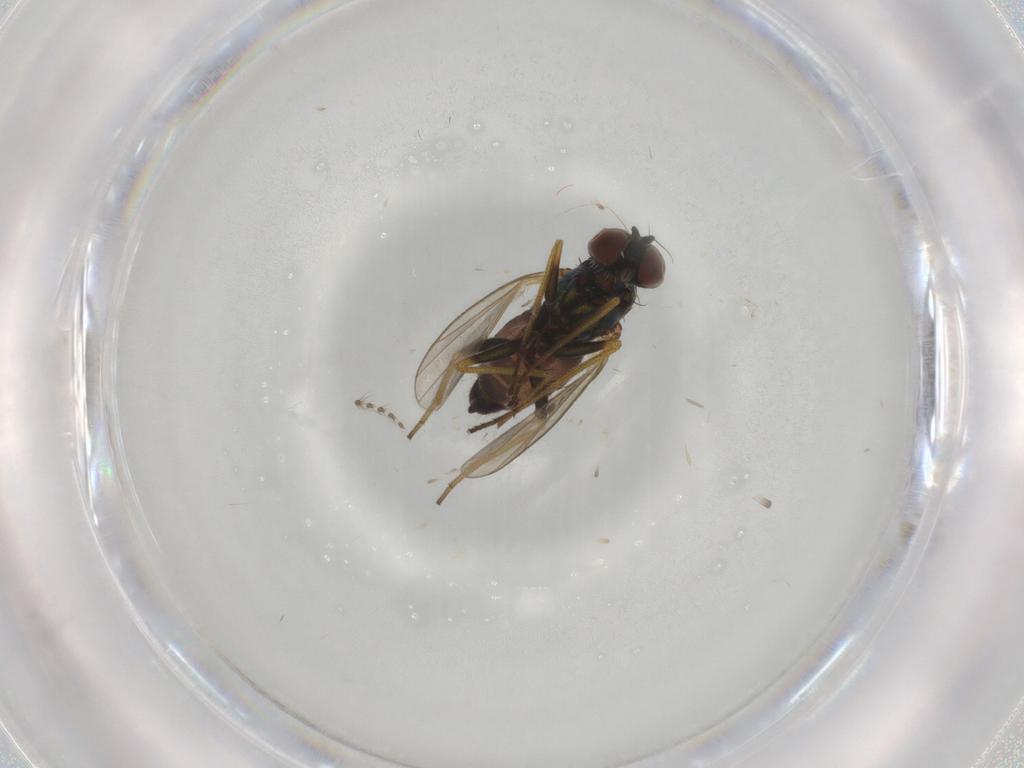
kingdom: Animalia
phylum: Arthropoda
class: Insecta
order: Diptera
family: Dolichopodidae
